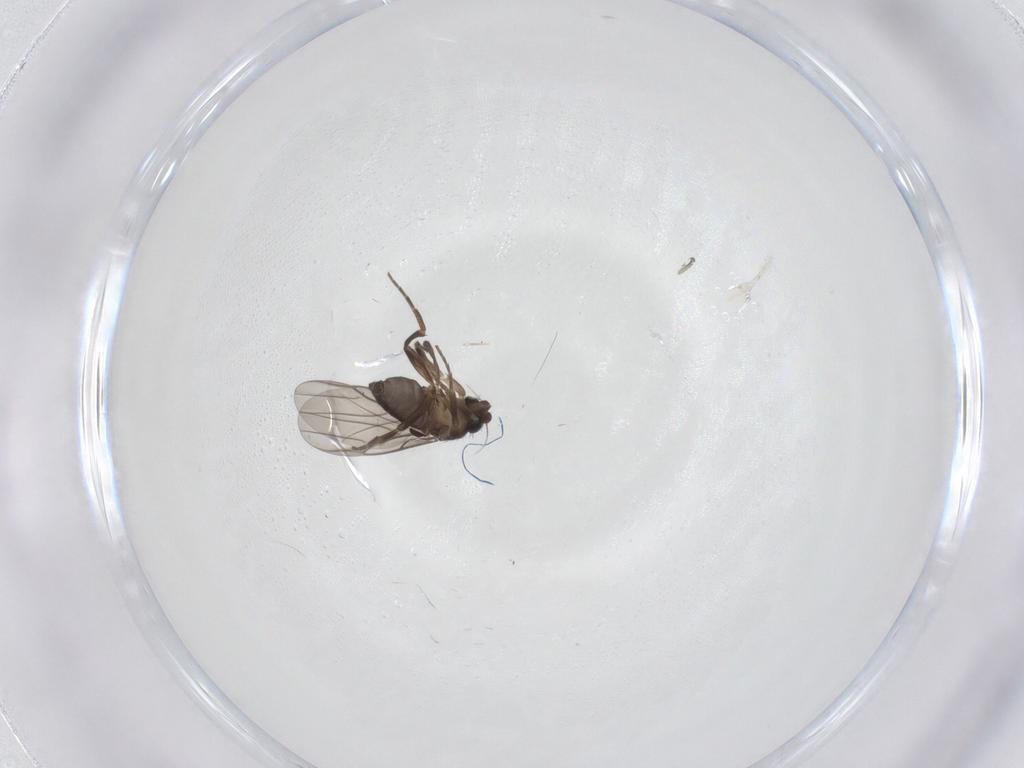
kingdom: Animalia
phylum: Arthropoda
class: Insecta
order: Diptera
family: Phoridae
